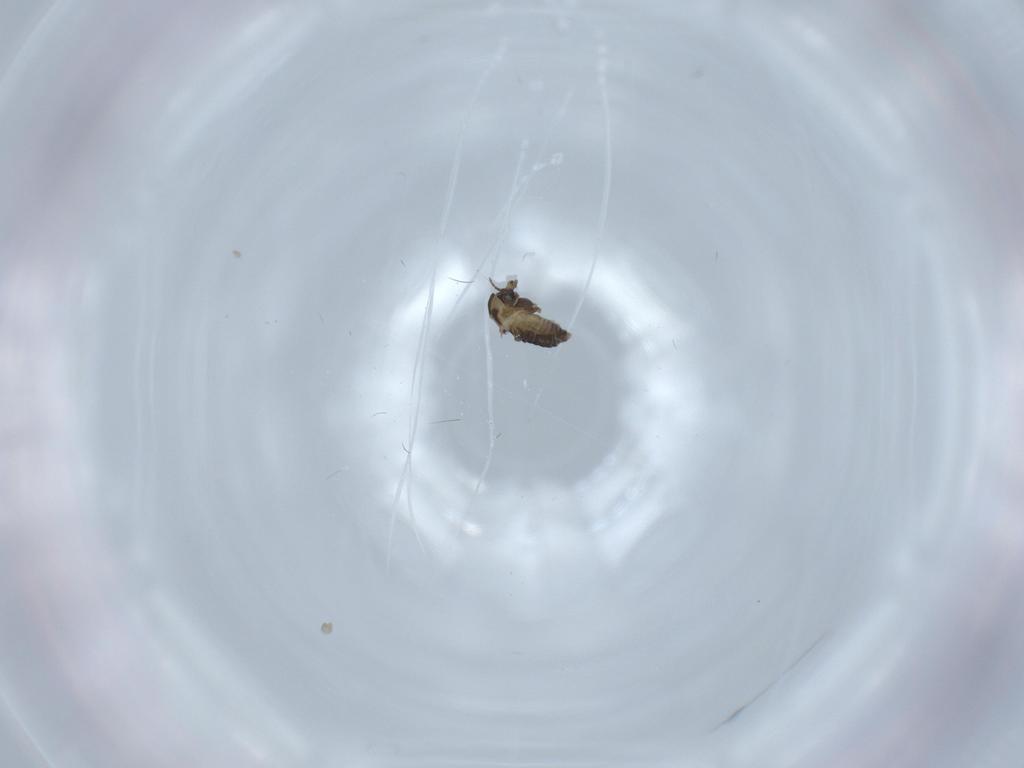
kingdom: Animalia
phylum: Arthropoda
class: Insecta
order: Diptera
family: Chironomidae
